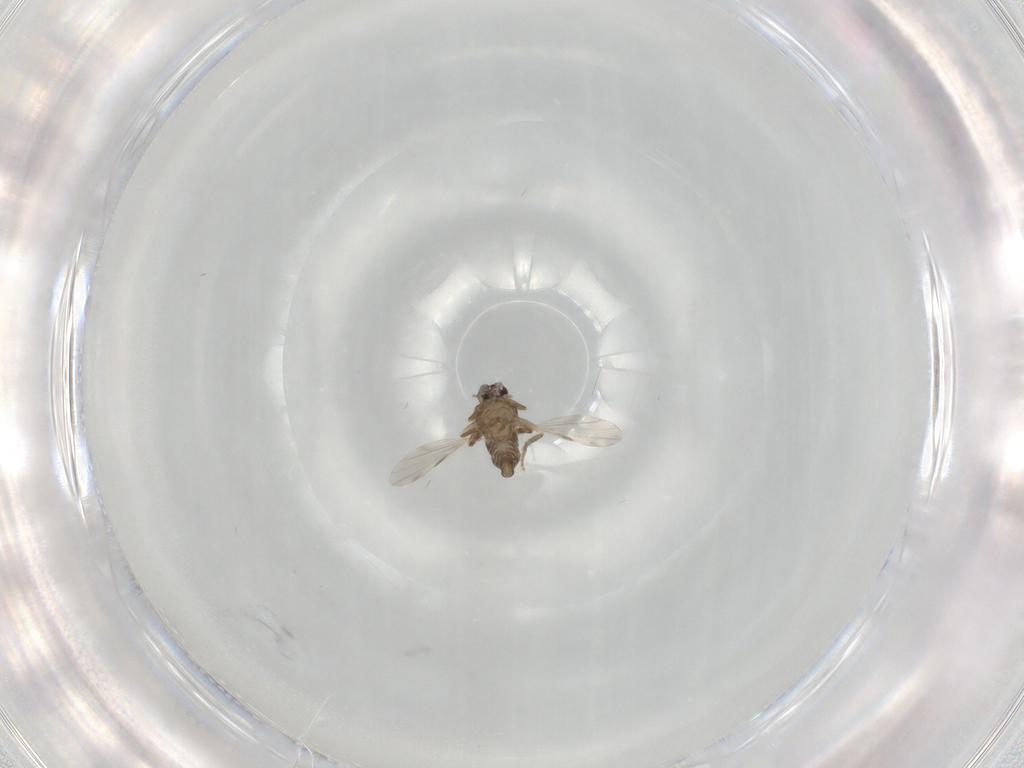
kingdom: Animalia
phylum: Arthropoda
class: Insecta
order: Diptera
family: Ceratopogonidae
